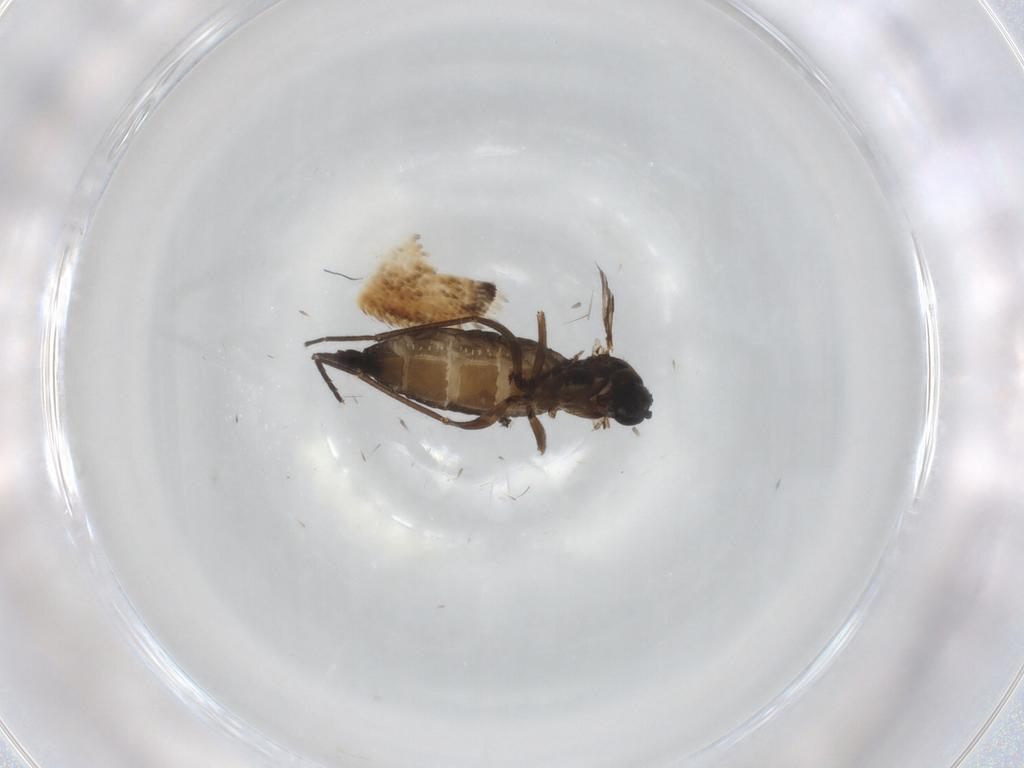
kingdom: Animalia
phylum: Arthropoda
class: Insecta
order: Diptera
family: Sciaridae
